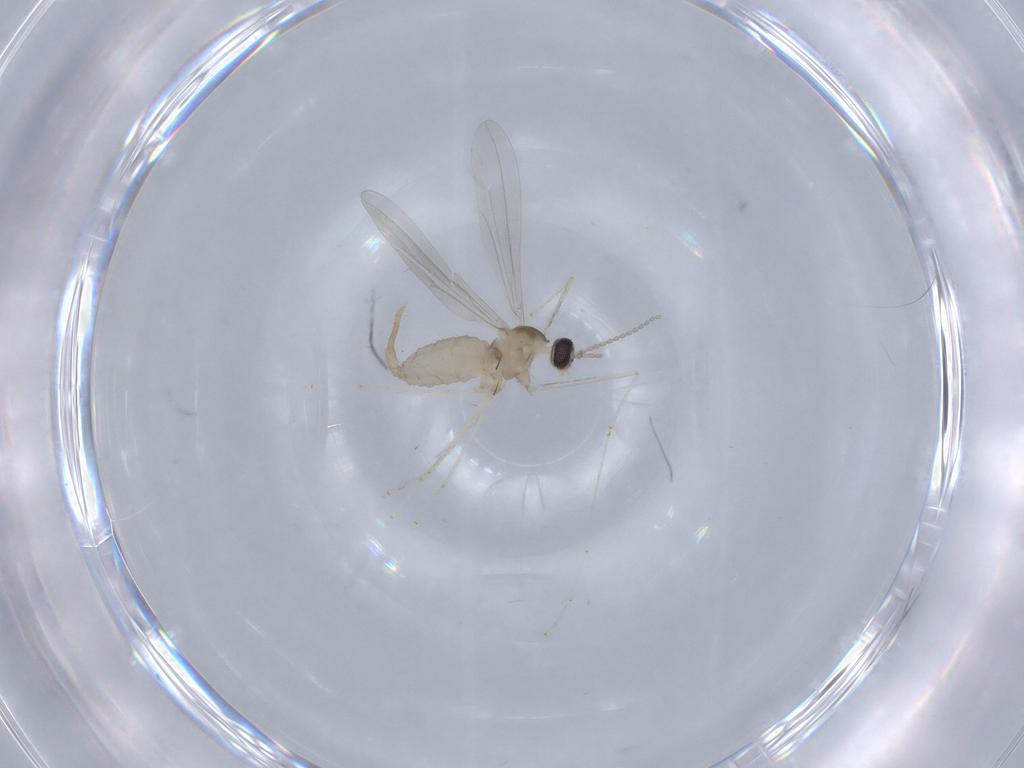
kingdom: Animalia
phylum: Arthropoda
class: Insecta
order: Diptera
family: Cecidomyiidae
